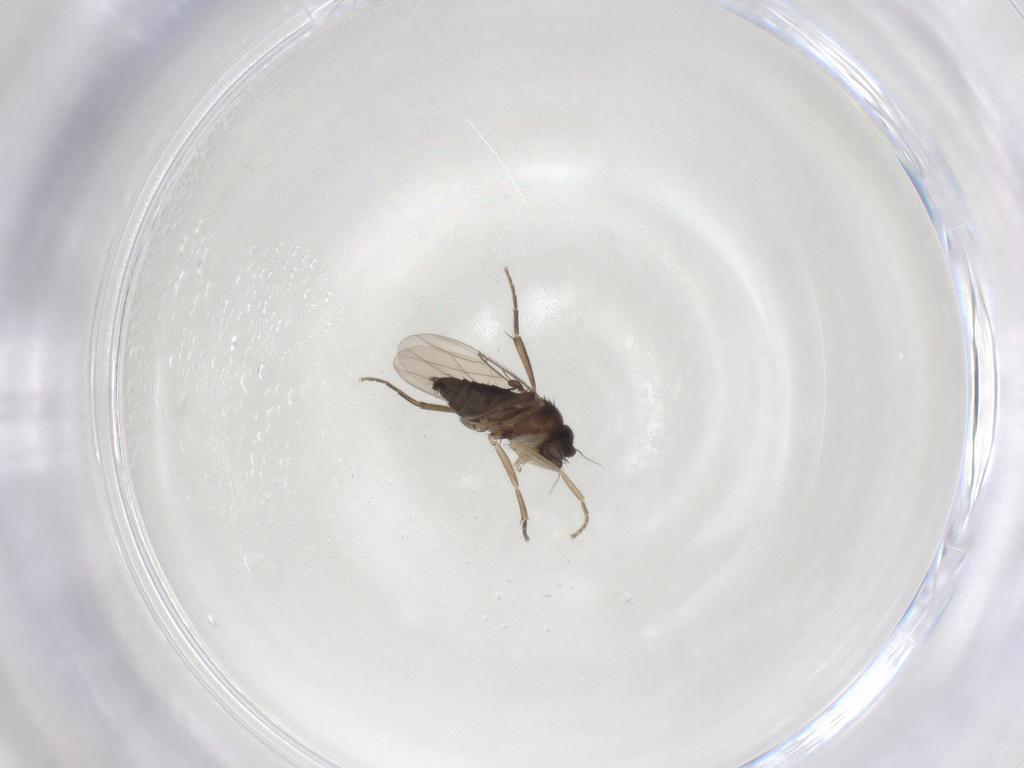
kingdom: Animalia
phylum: Arthropoda
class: Insecta
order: Diptera
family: Phoridae
